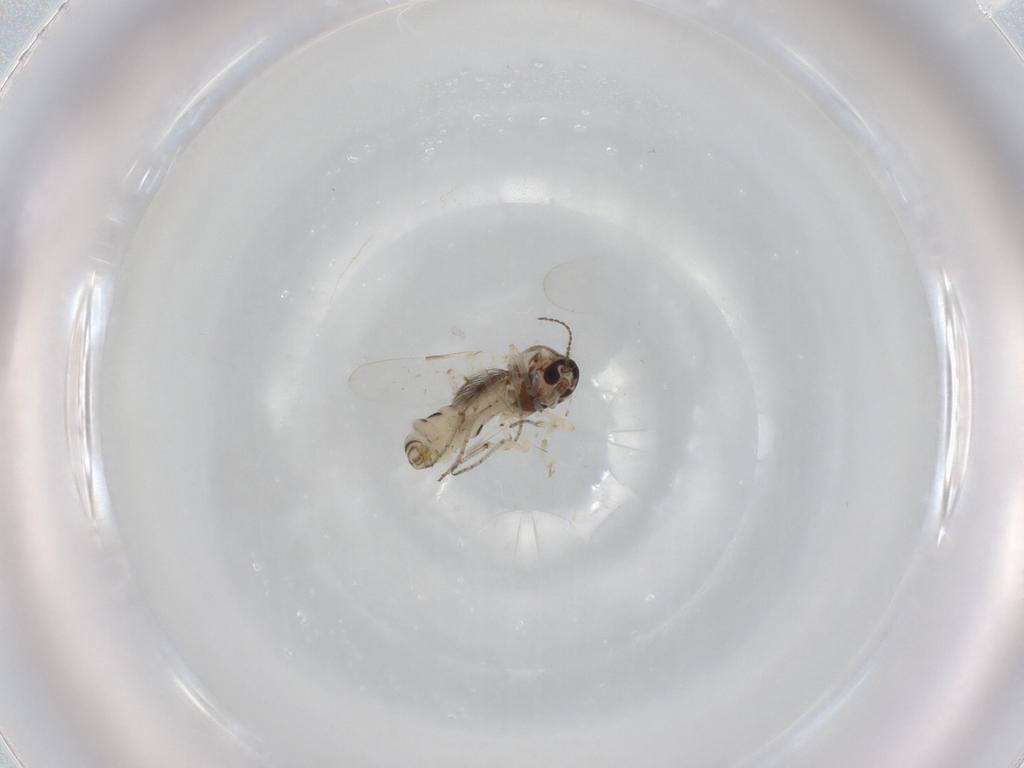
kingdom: Animalia
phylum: Arthropoda
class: Insecta
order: Diptera
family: Ceratopogonidae
